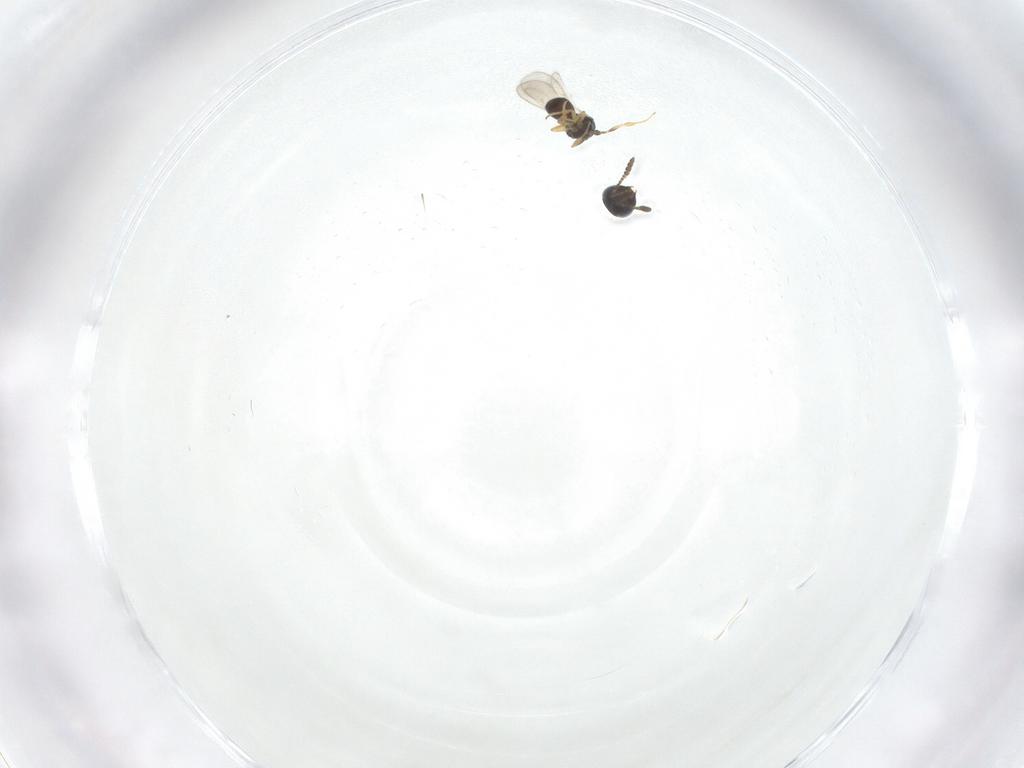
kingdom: Animalia
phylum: Arthropoda
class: Insecta
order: Hymenoptera
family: Scelionidae
